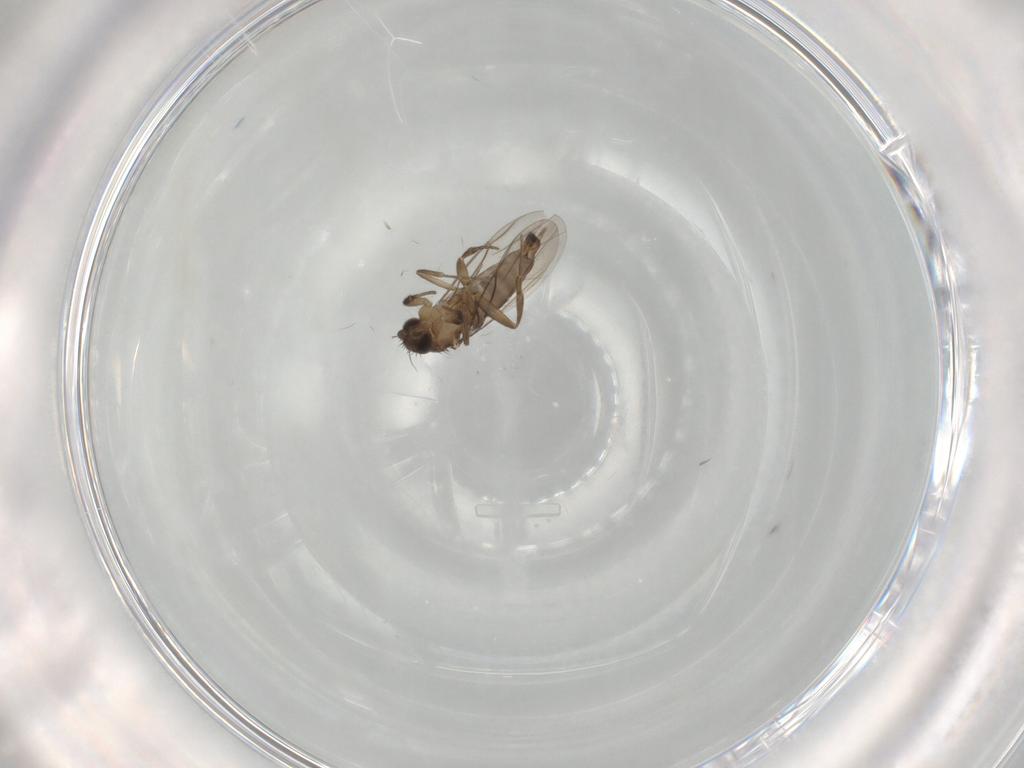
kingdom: Animalia
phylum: Arthropoda
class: Insecta
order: Diptera
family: Phoridae
